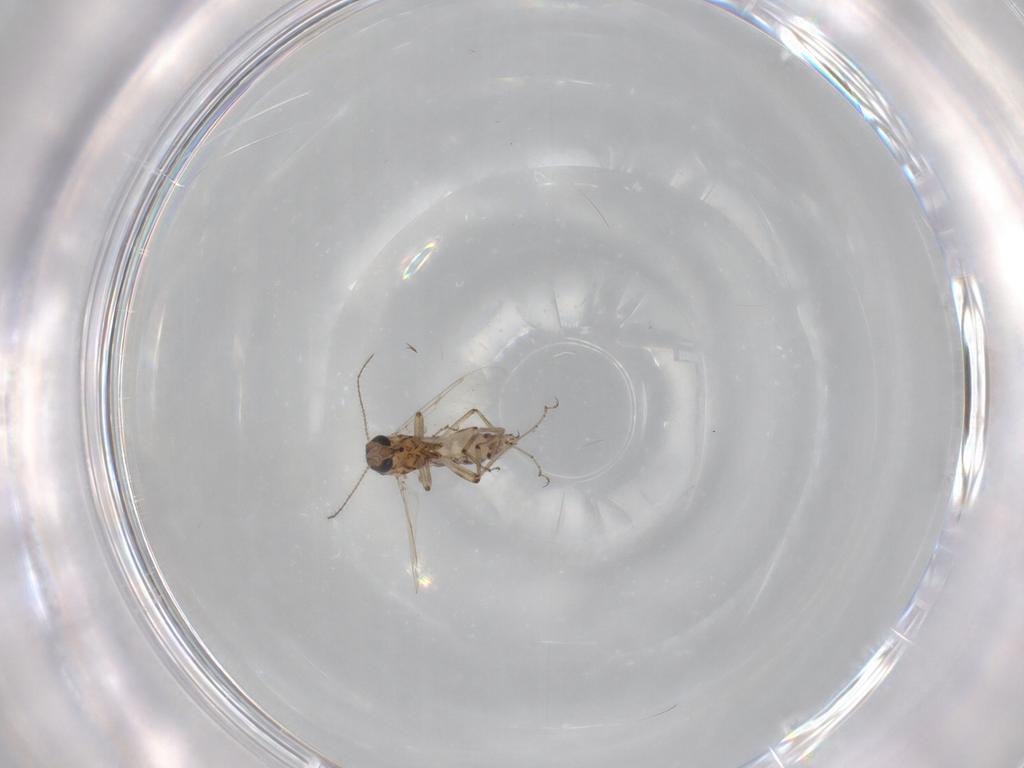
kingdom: Animalia
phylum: Arthropoda
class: Insecta
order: Diptera
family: Ceratopogonidae
